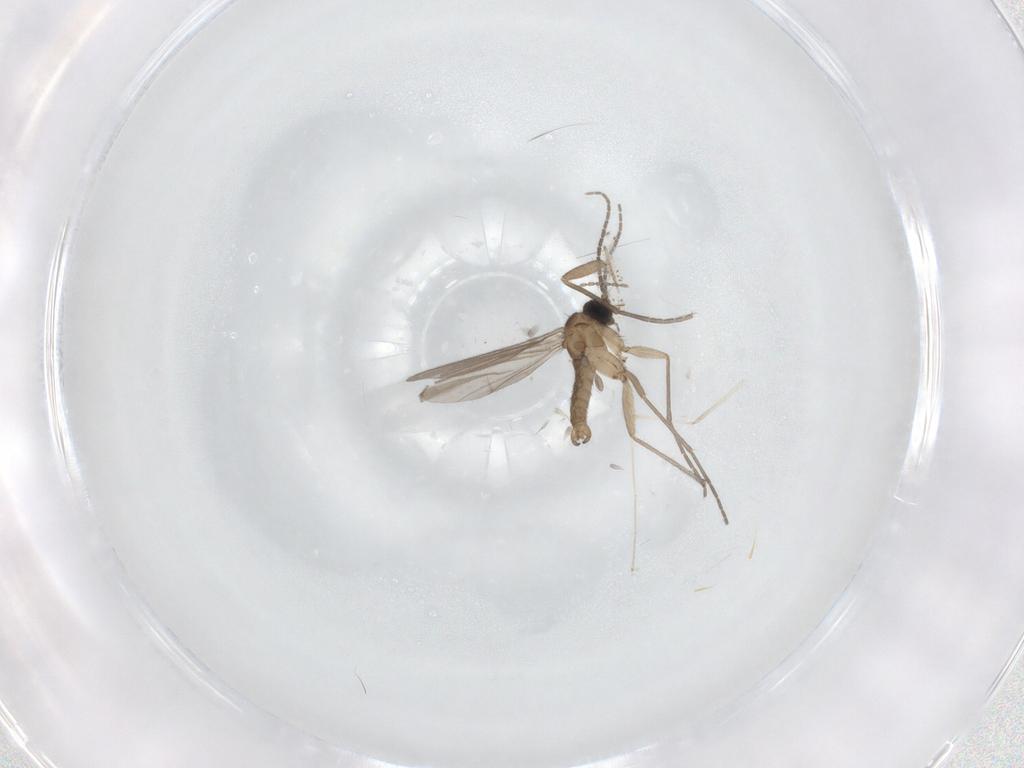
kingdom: Animalia
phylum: Arthropoda
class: Insecta
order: Diptera
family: Sciaridae
